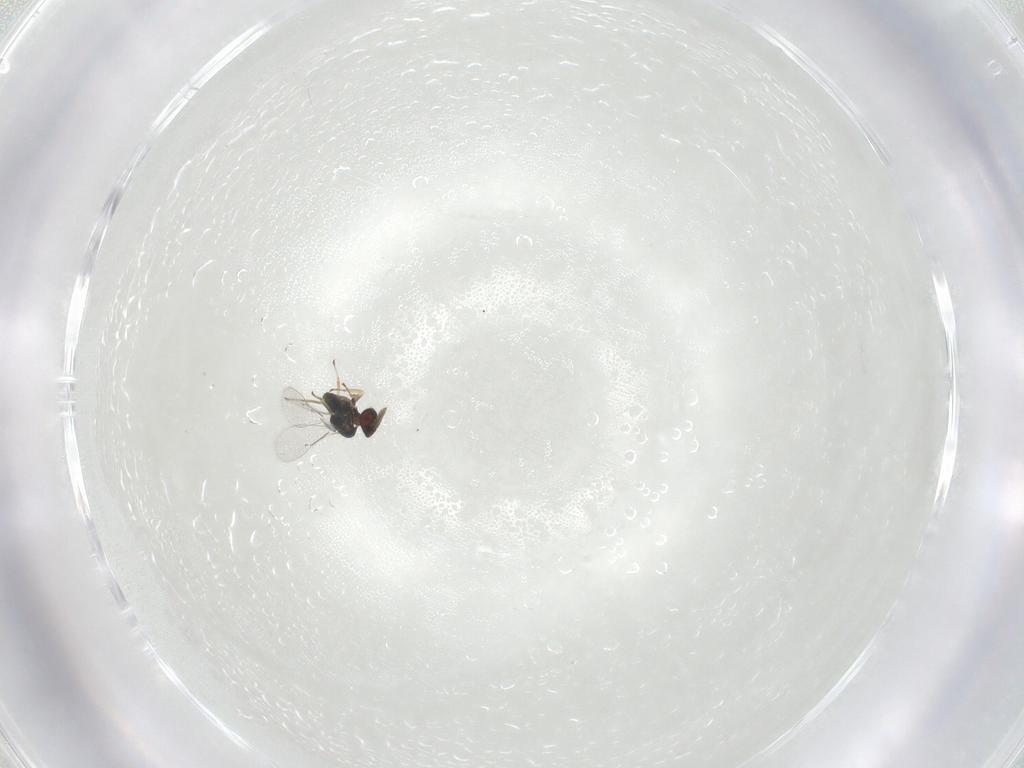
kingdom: Animalia
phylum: Arthropoda
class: Insecta
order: Hymenoptera
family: Eulophidae
